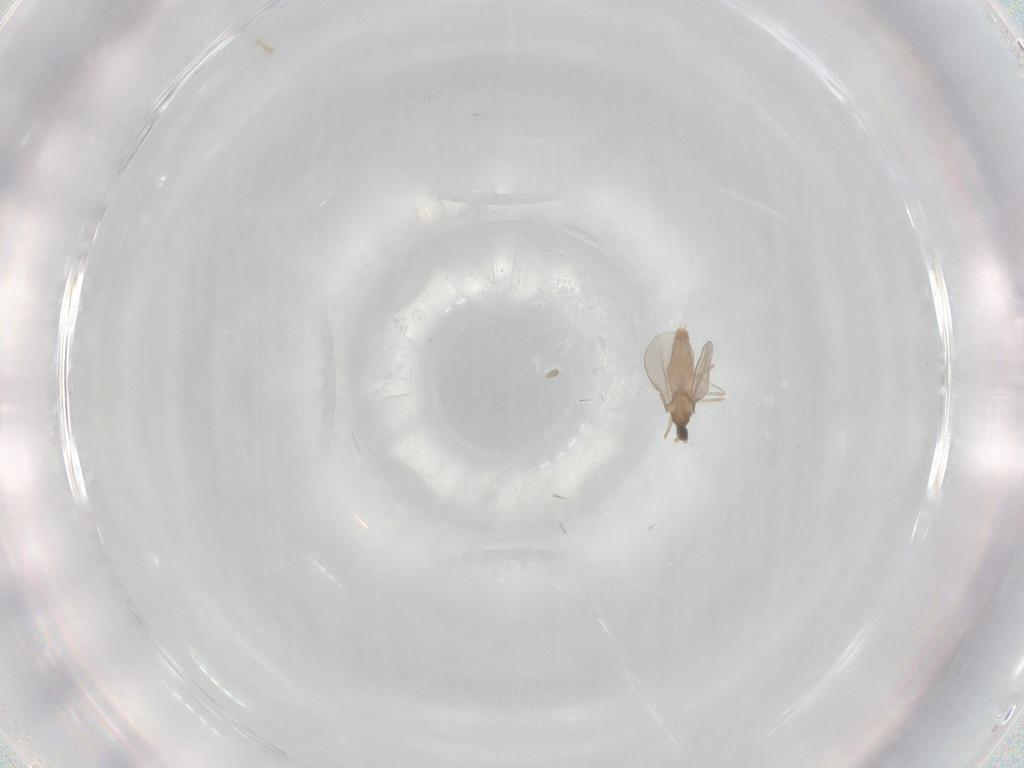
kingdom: Animalia
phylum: Arthropoda
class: Insecta
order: Diptera
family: Cecidomyiidae
